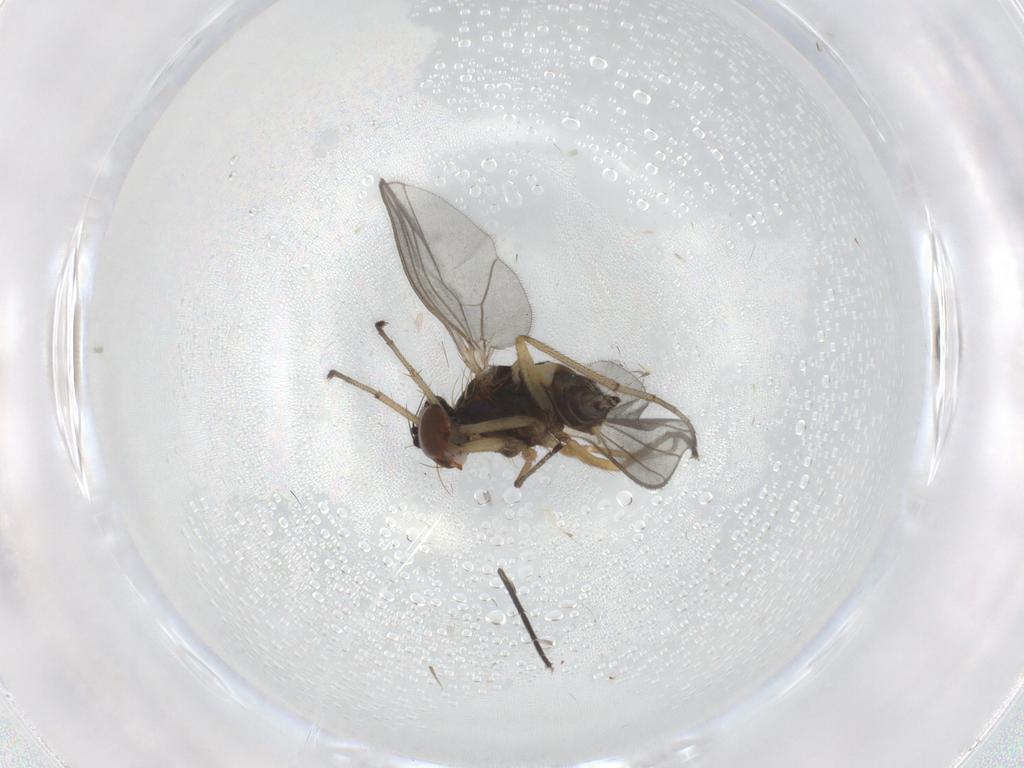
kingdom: Animalia
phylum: Arthropoda
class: Insecta
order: Diptera
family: Dolichopodidae
